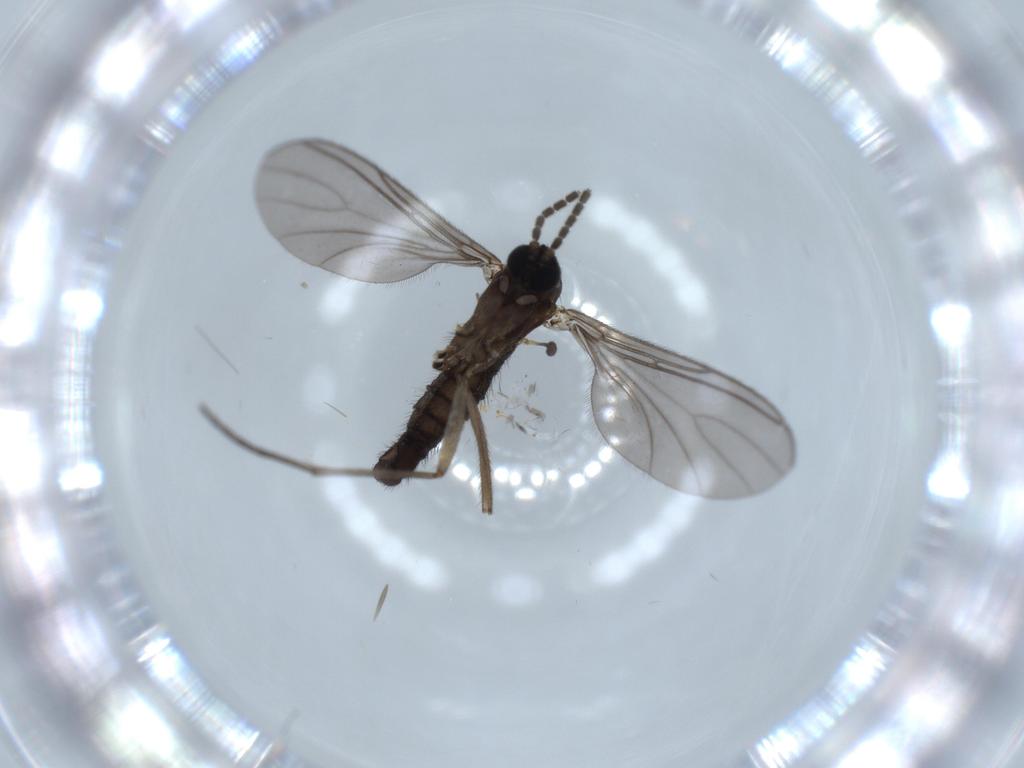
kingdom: Animalia
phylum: Arthropoda
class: Insecta
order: Diptera
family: Sciaridae
